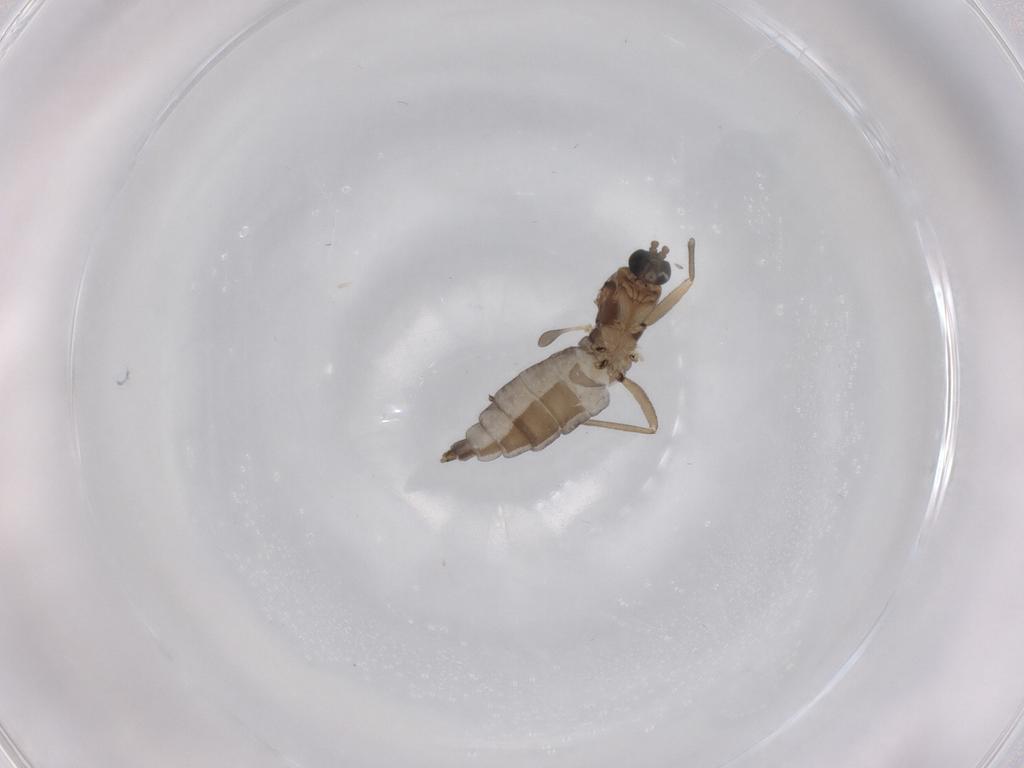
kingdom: Animalia
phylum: Arthropoda
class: Insecta
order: Diptera
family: Sciaridae
